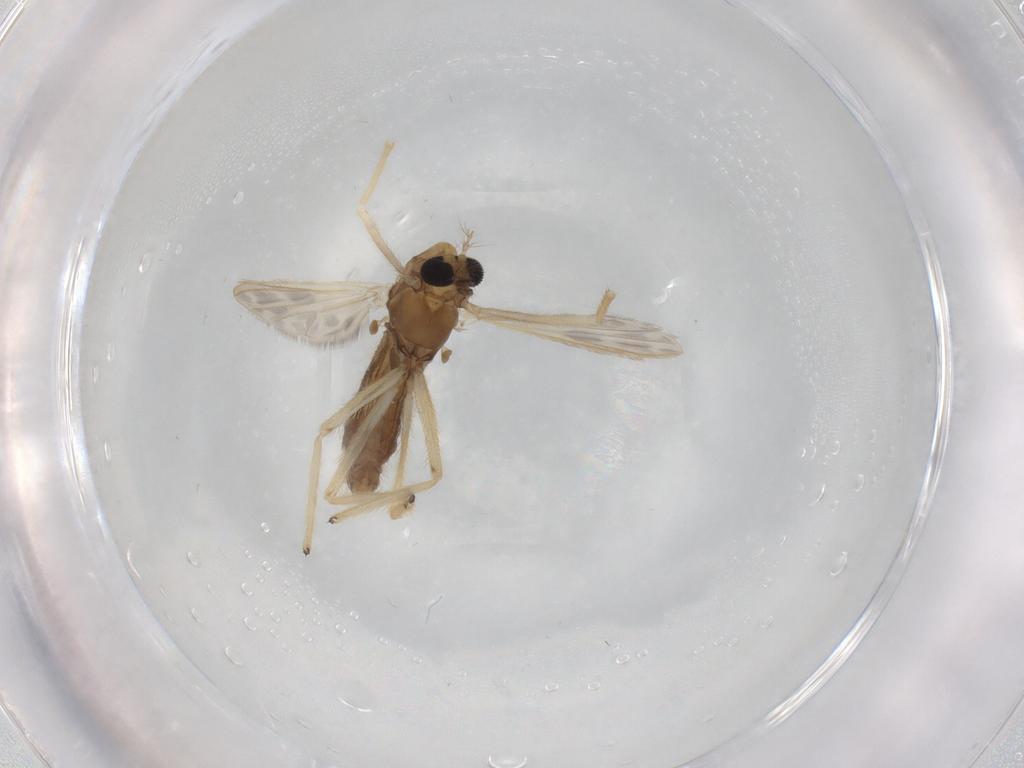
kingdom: Animalia
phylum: Arthropoda
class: Insecta
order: Diptera
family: Chironomidae
